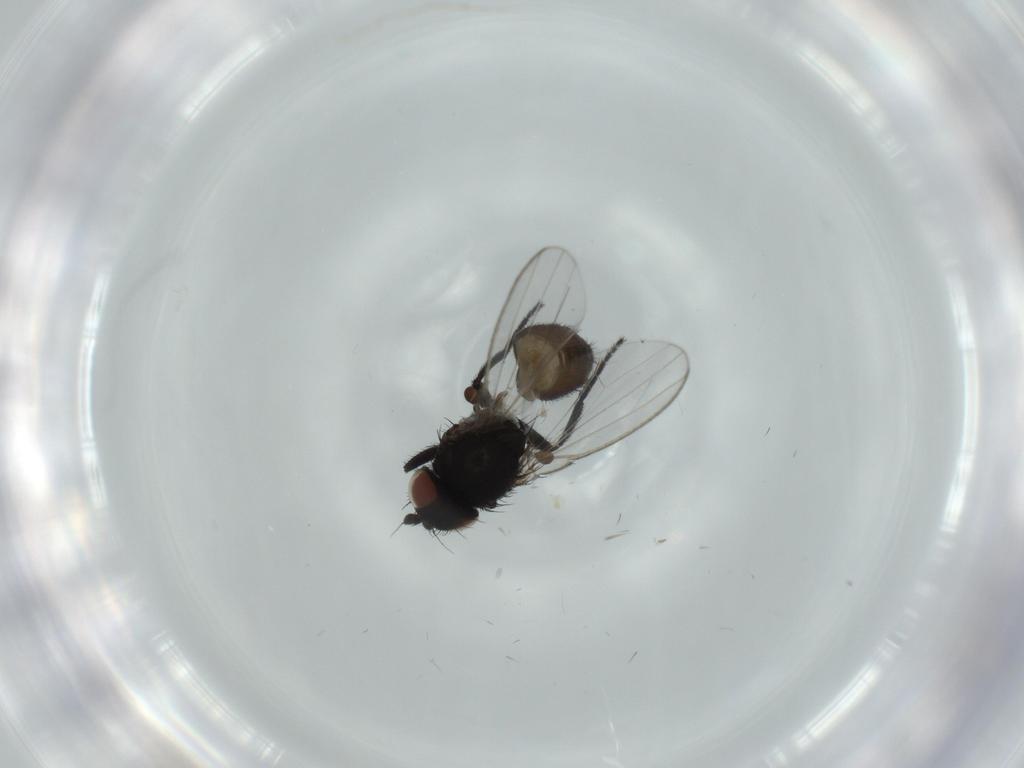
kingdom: Animalia
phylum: Arthropoda
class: Insecta
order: Diptera
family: Milichiidae
